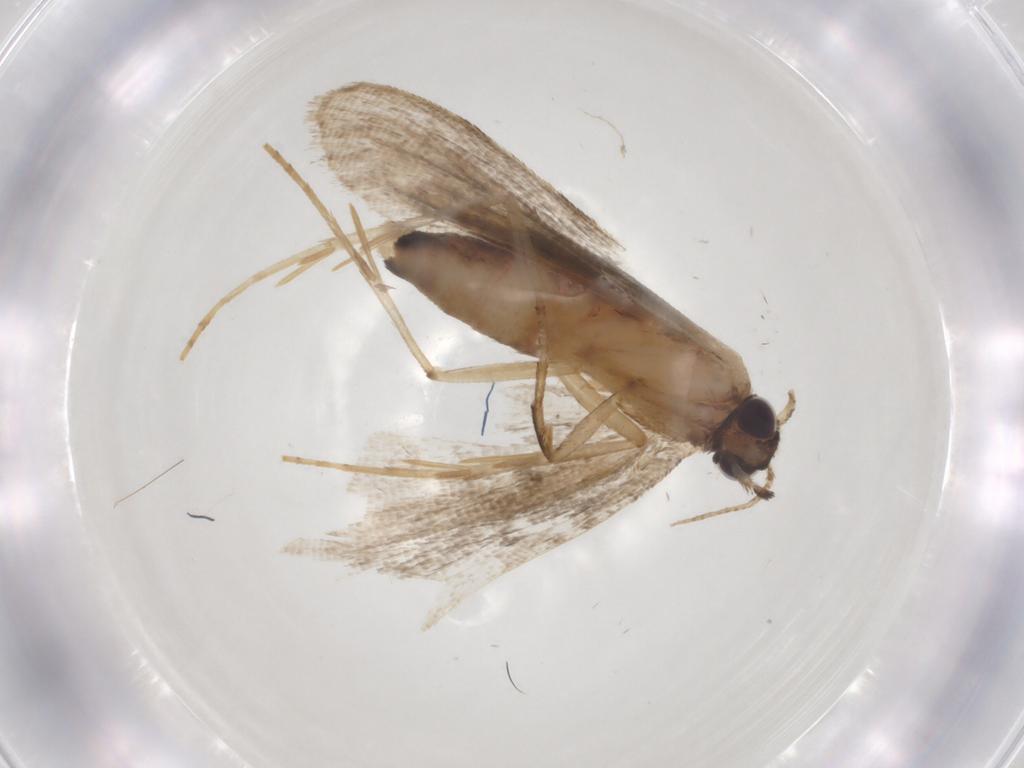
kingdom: Animalia
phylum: Arthropoda
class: Insecta
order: Lepidoptera
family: Erebidae
